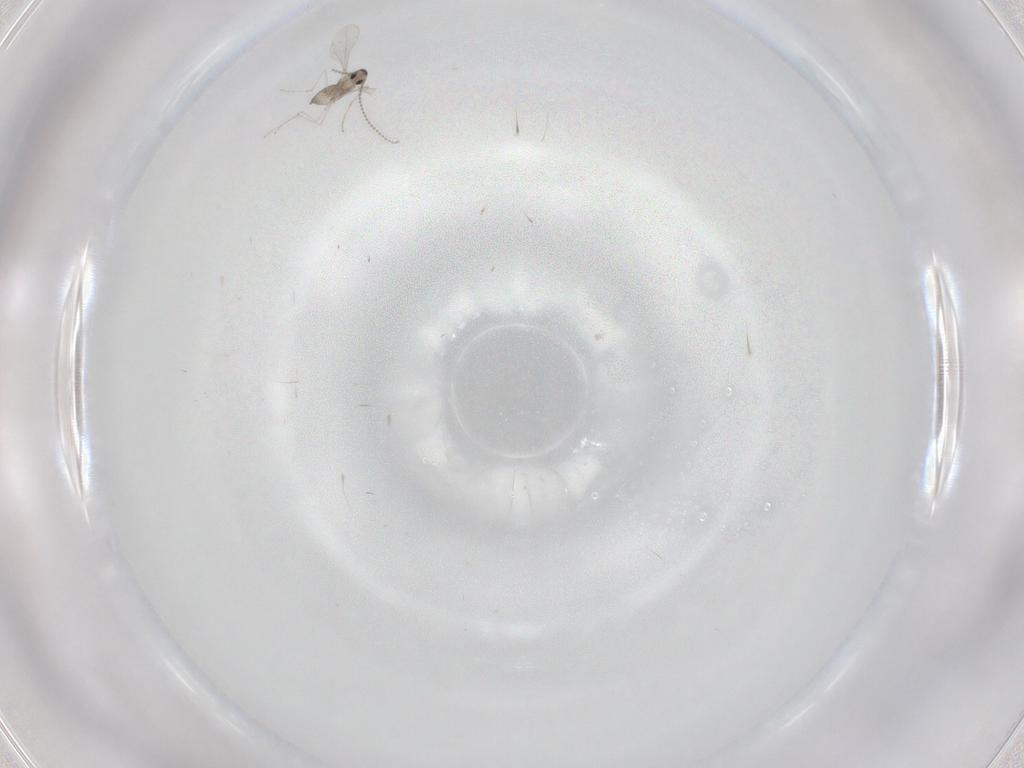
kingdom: Animalia
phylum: Arthropoda
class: Insecta
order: Diptera
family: Cecidomyiidae
